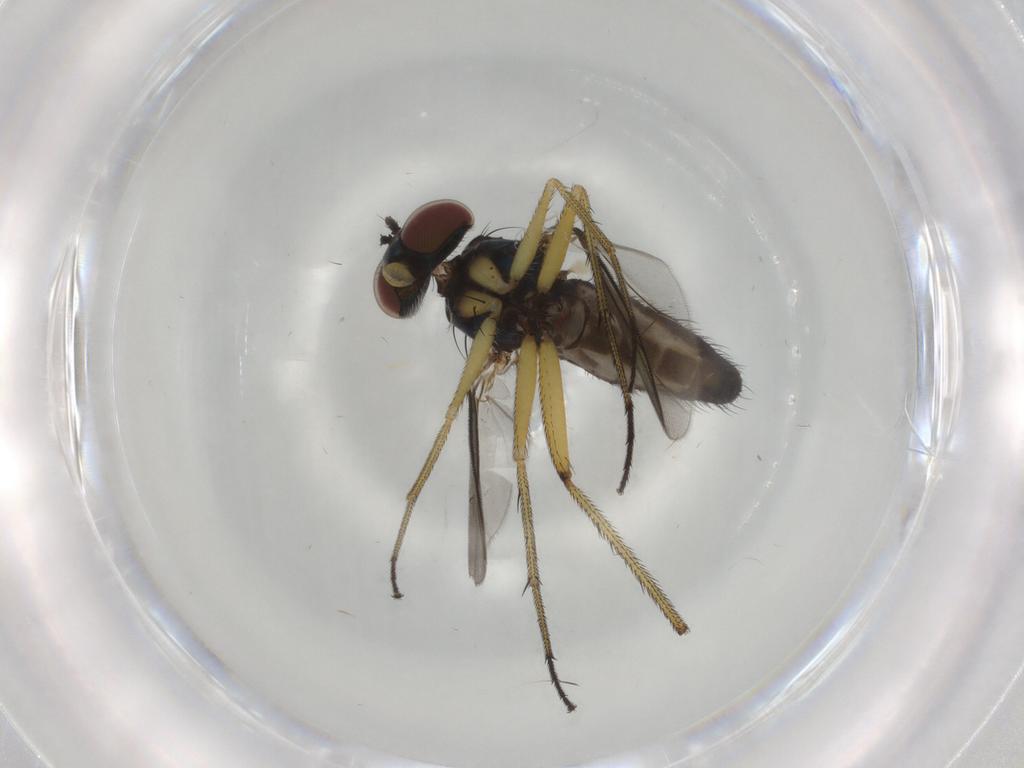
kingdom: Animalia
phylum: Arthropoda
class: Insecta
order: Diptera
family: Dolichopodidae
